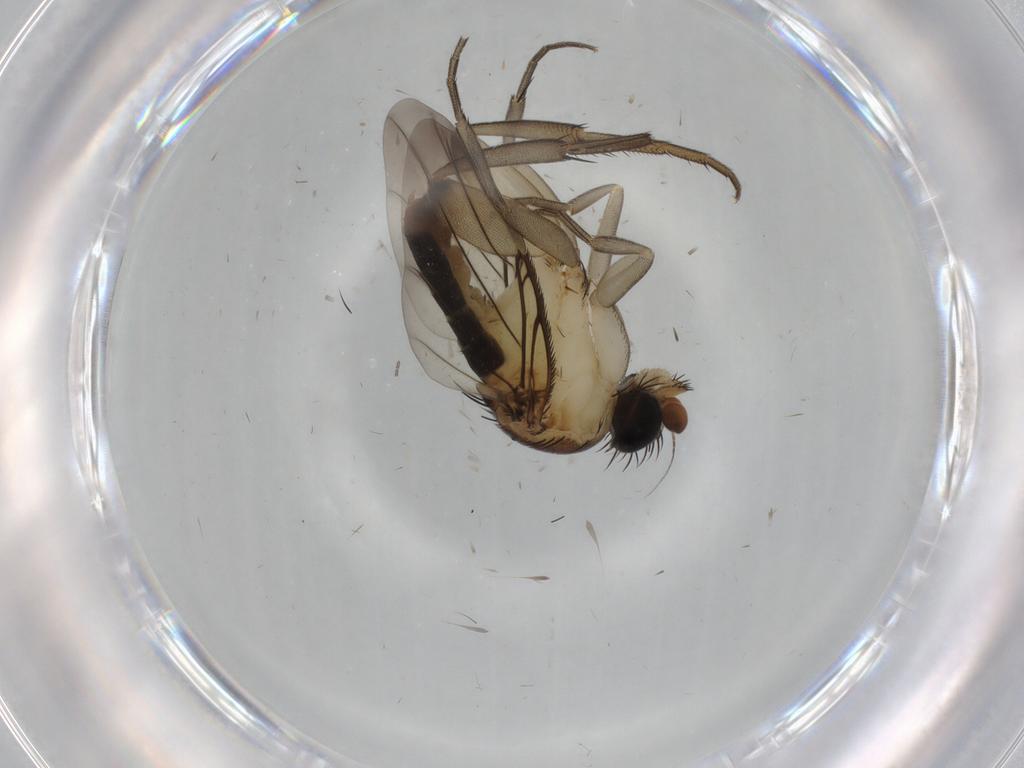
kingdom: Animalia
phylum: Arthropoda
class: Insecta
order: Diptera
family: Phoridae
